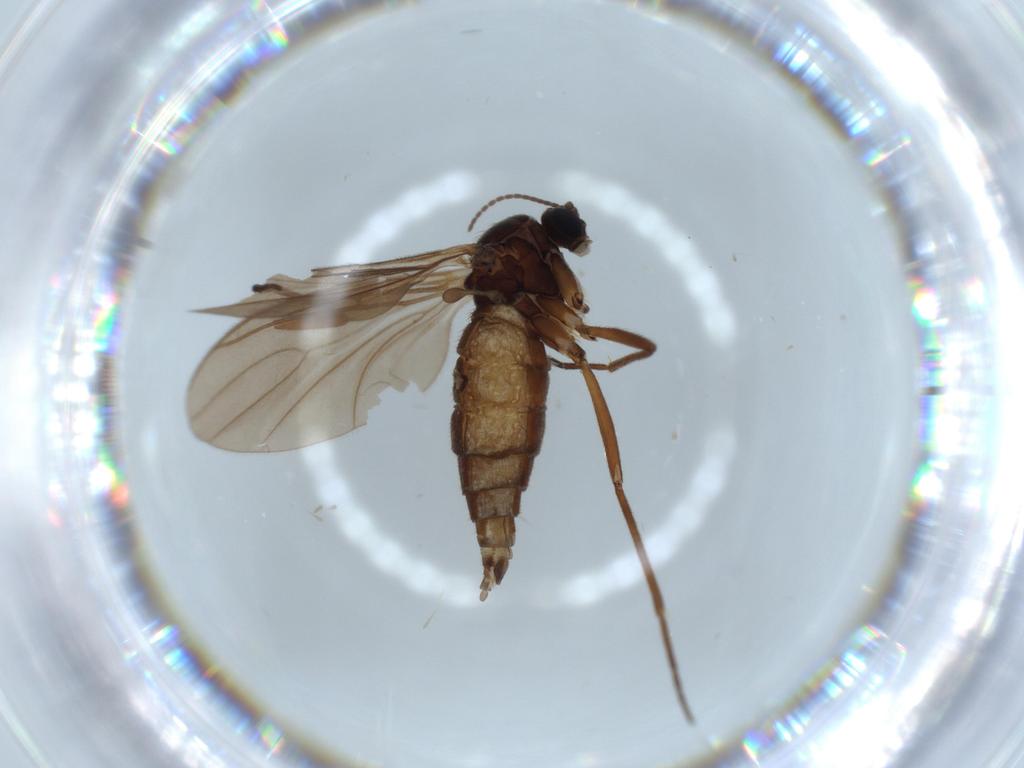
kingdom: Animalia
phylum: Arthropoda
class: Insecta
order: Diptera
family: Sciaridae
